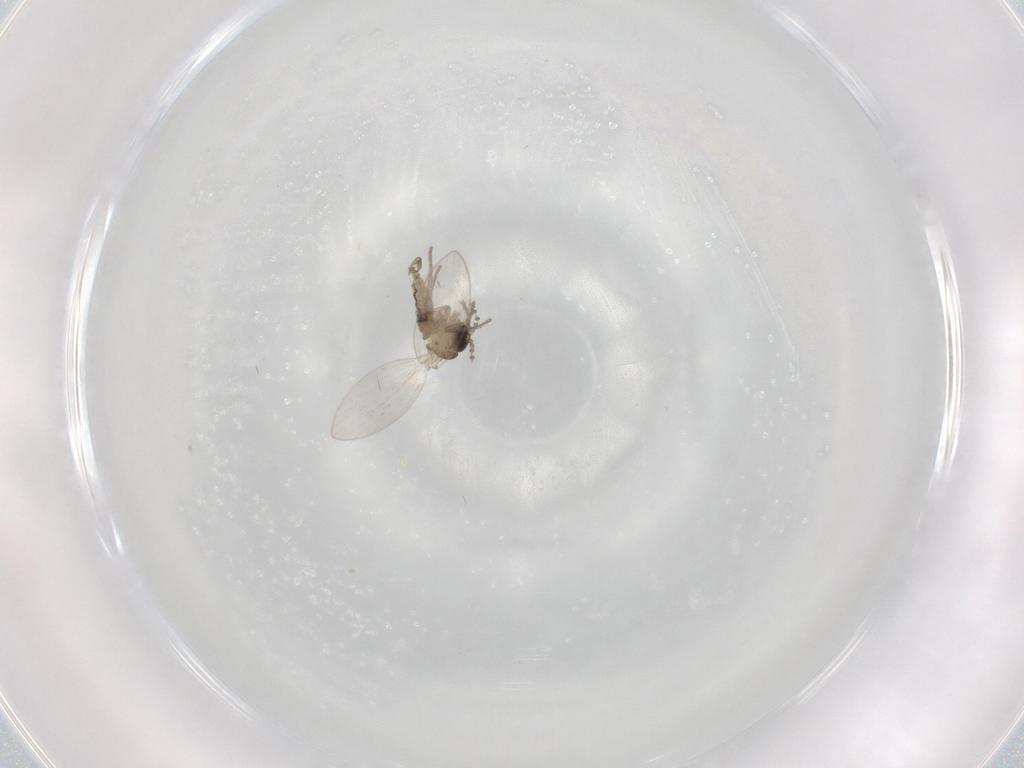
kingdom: Animalia
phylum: Arthropoda
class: Insecta
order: Diptera
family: Psychodidae
